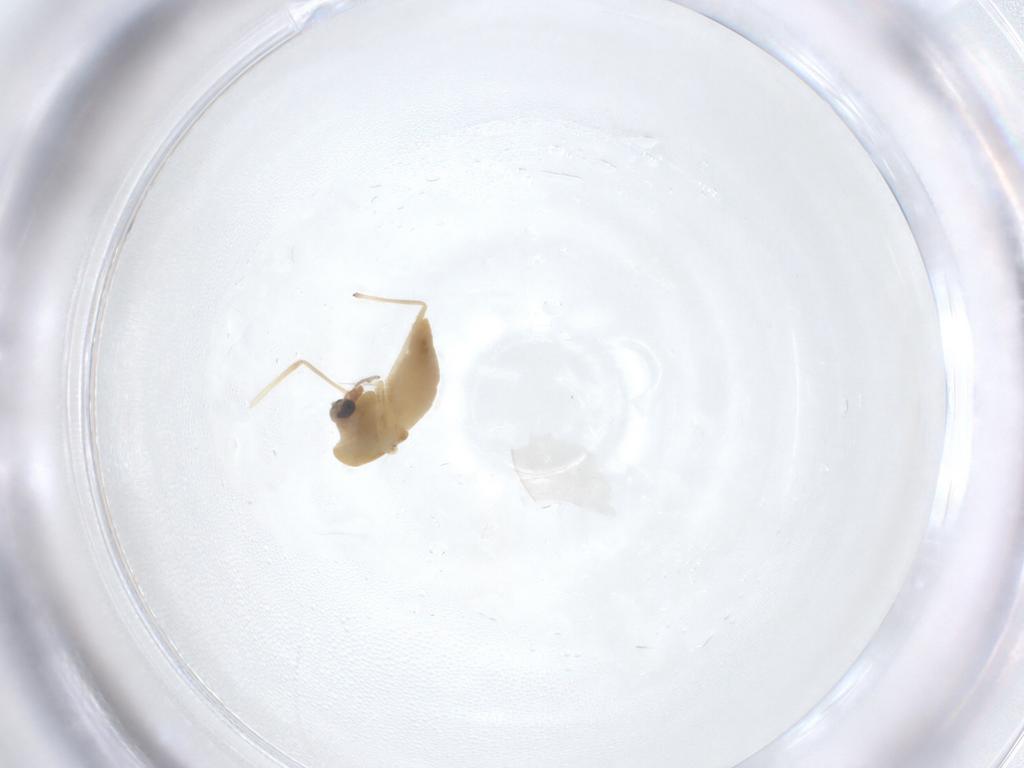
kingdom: Animalia
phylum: Arthropoda
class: Insecta
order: Diptera
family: Chironomidae
